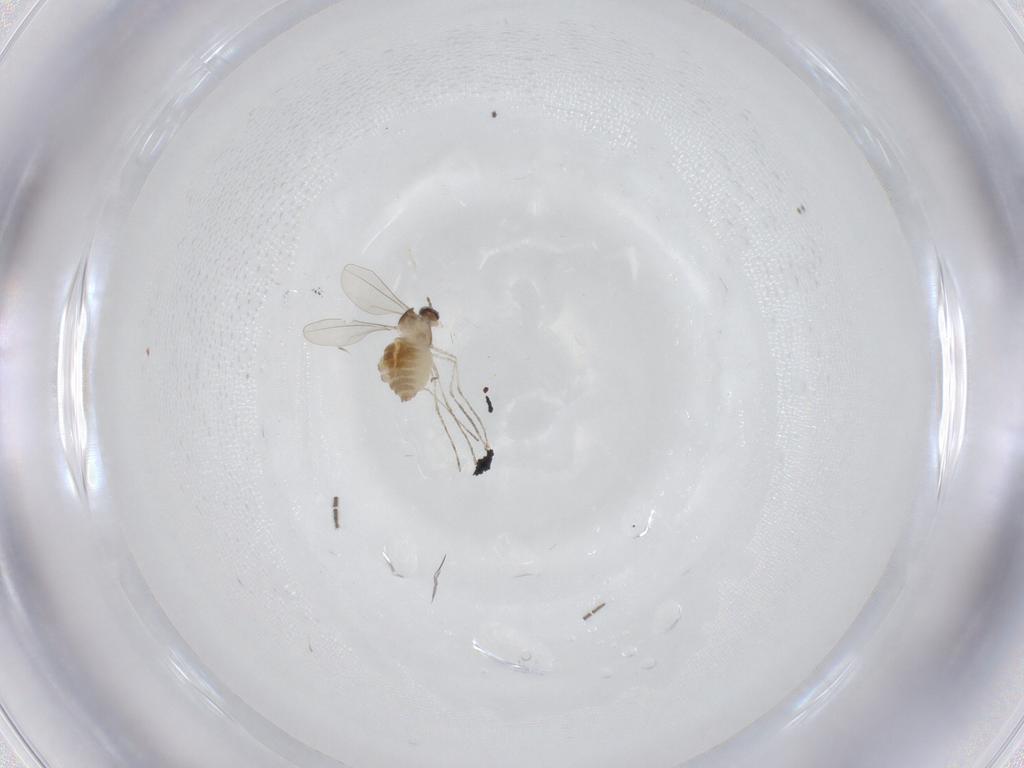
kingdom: Animalia
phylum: Arthropoda
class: Insecta
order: Diptera
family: Cecidomyiidae
